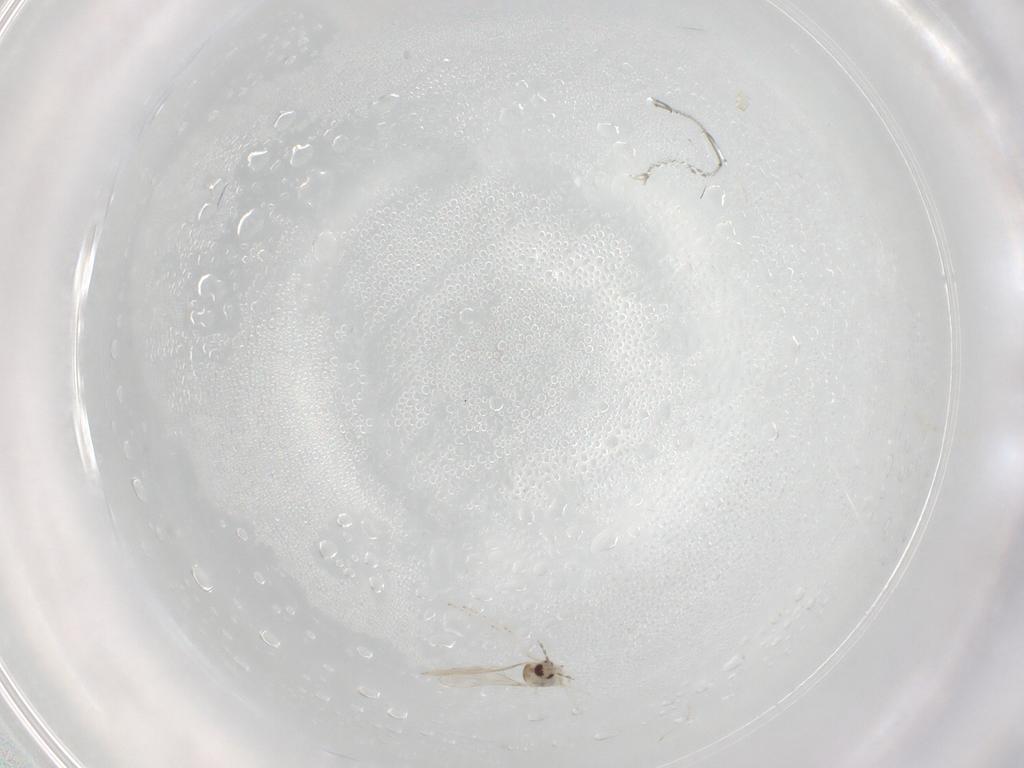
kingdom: Animalia
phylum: Arthropoda
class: Insecta
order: Diptera
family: Cecidomyiidae
